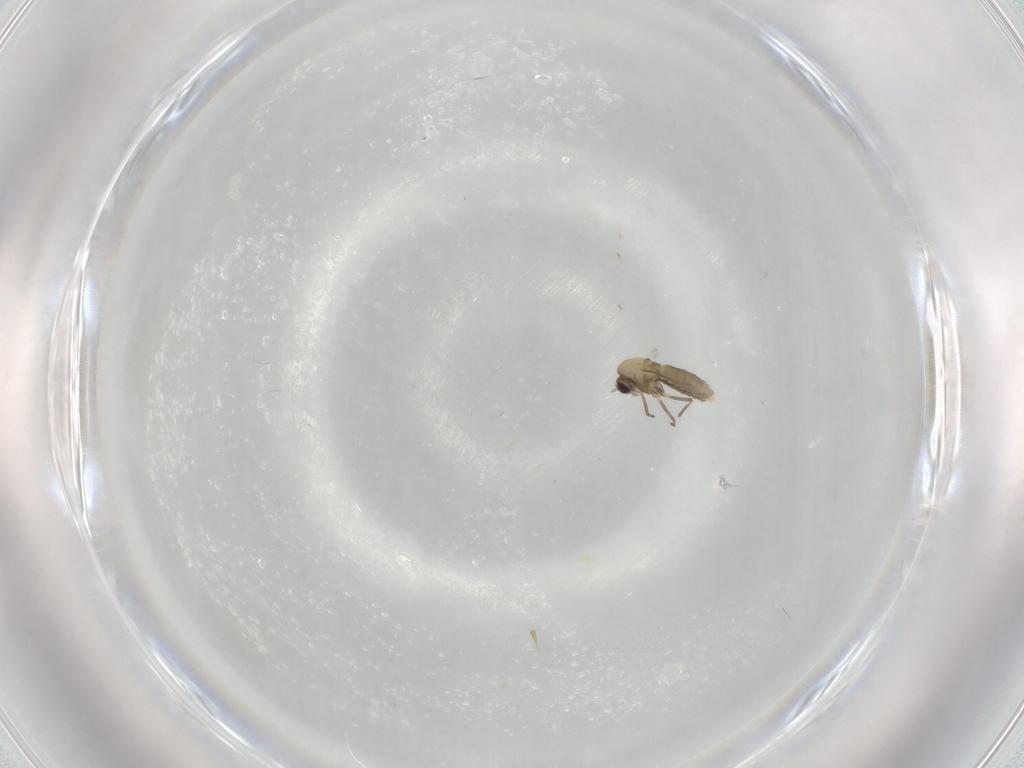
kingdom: Animalia
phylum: Arthropoda
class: Insecta
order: Diptera
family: Chironomidae
